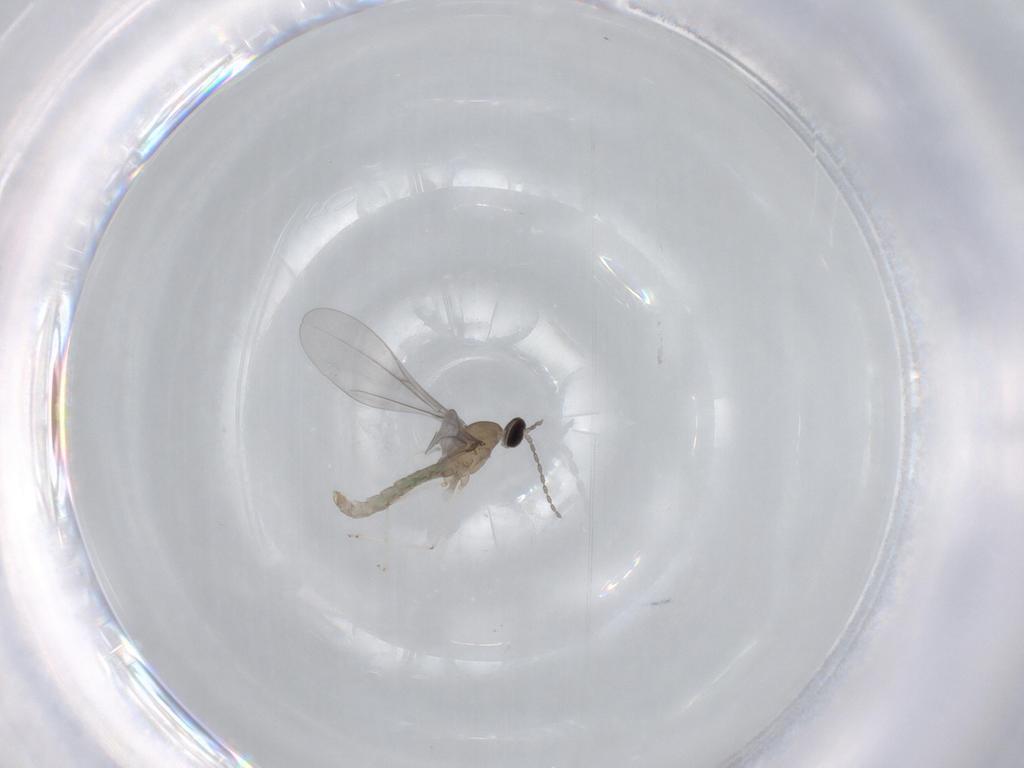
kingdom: Animalia
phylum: Arthropoda
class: Insecta
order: Diptera
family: Cecidomyiidae
